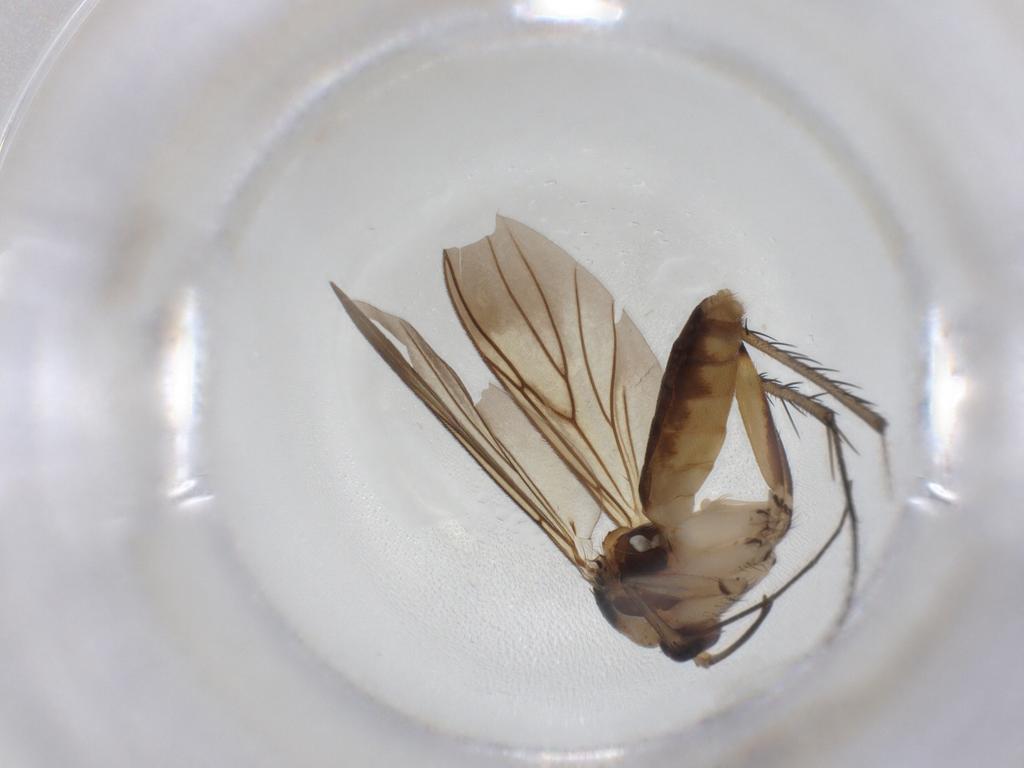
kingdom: Animalia
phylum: Arthropoda
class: Insecta
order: Diptera
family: Mycetophilidae
